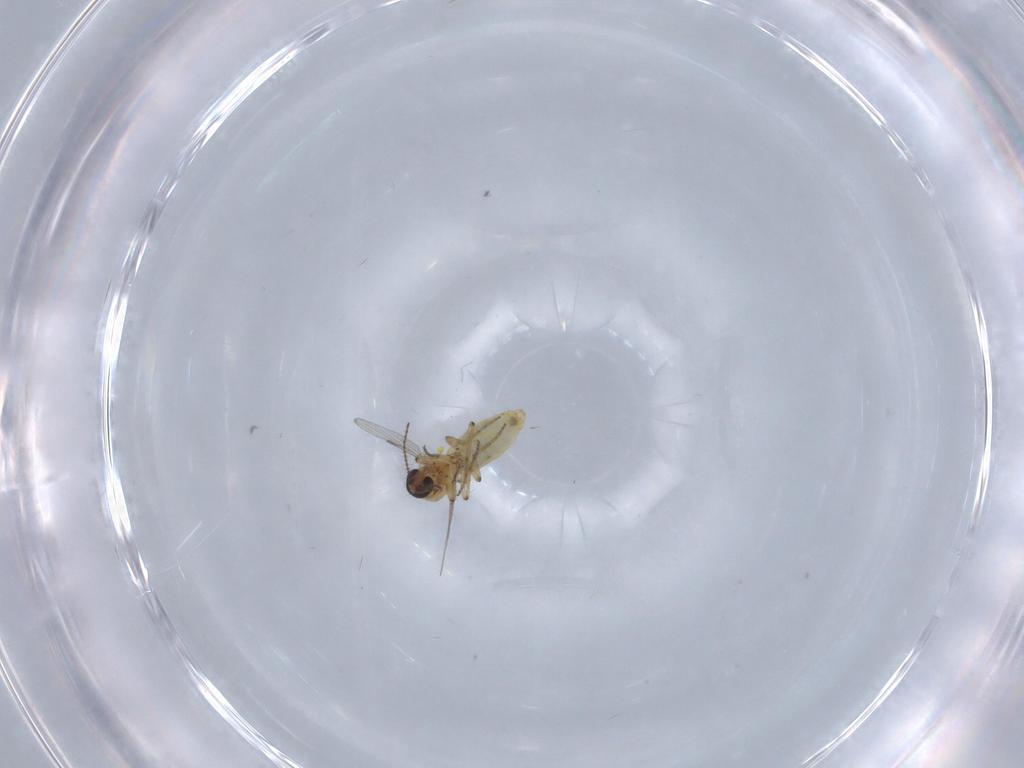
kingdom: Animalia
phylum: Arthropoda
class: Insecta
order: Diptera
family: Ceratopogonidae
